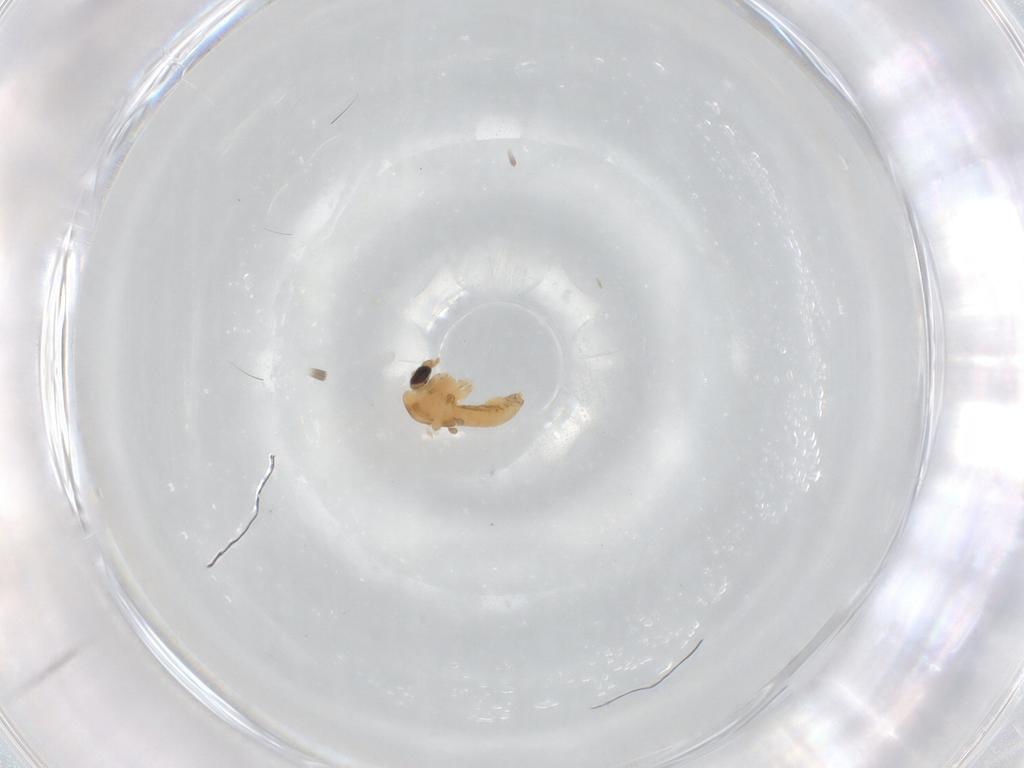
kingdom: Animalia
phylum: Arthropoda
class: Insecta
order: Diptera
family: Chironomidae
